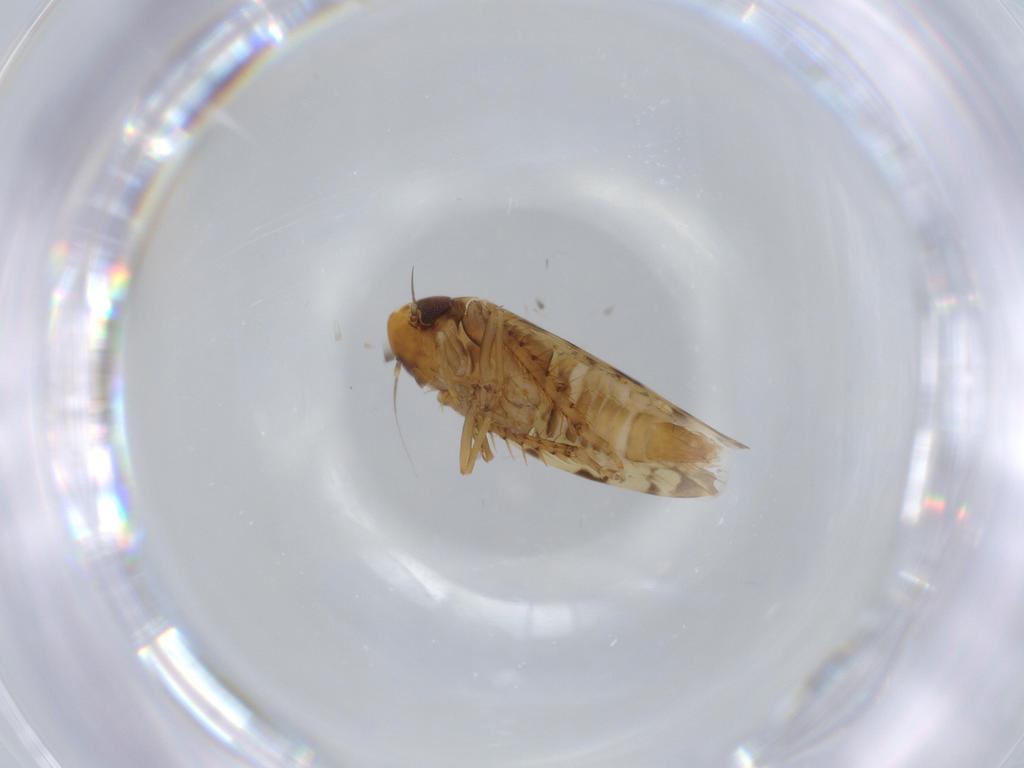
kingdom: Animalia
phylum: Arthropoda
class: Insecta
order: Hemiptera
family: Cicadellidae
